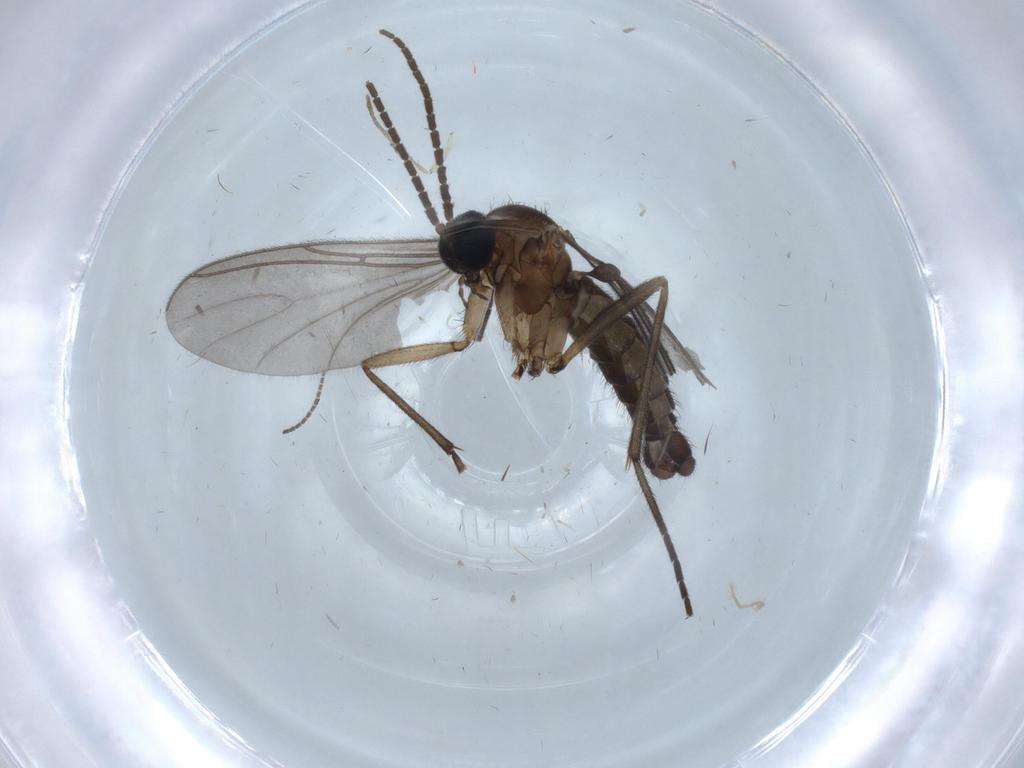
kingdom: Animalia
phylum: Arthropoda
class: Insecta
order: Diptera
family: Sciaridae
